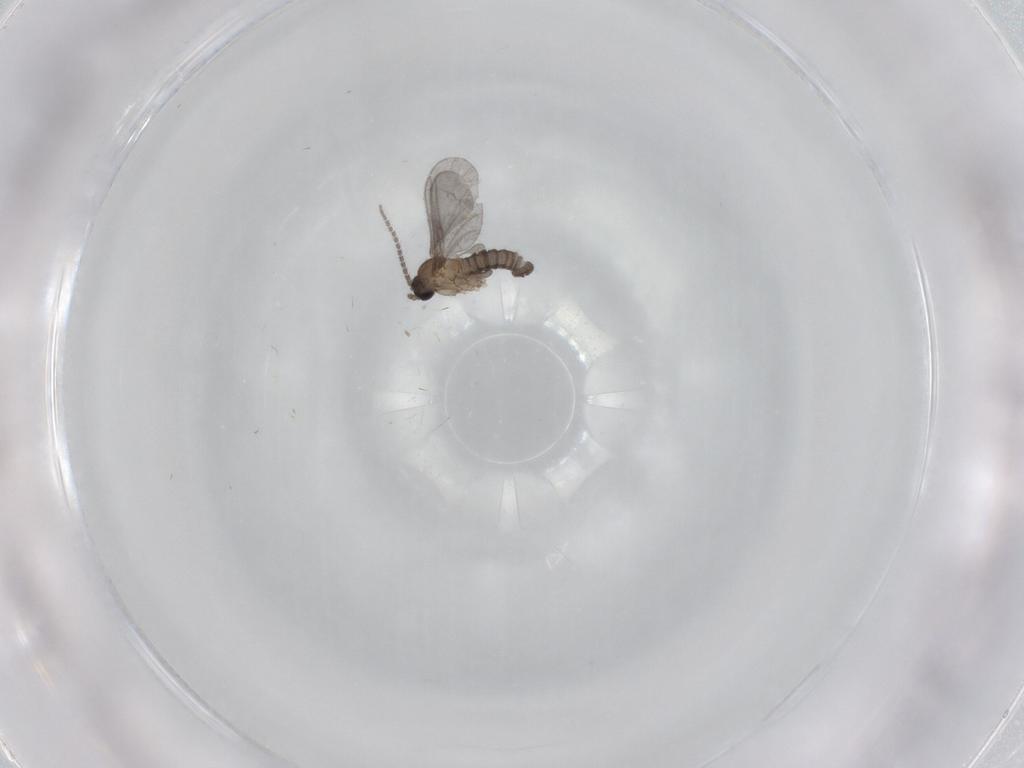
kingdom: Animalia
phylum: Arthropoda
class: Insecta
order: Diptera
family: Sciaridae
